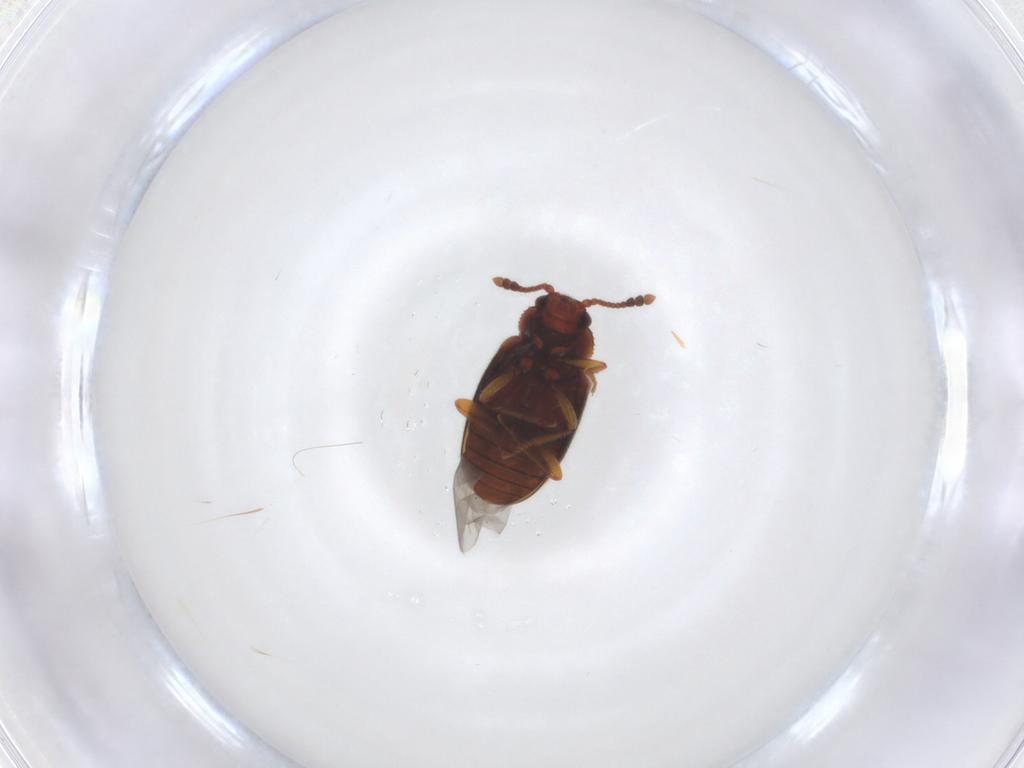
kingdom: Animalia
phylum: Arthropoda
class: Insecta
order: Coleoptera
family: Cryptophagidae
